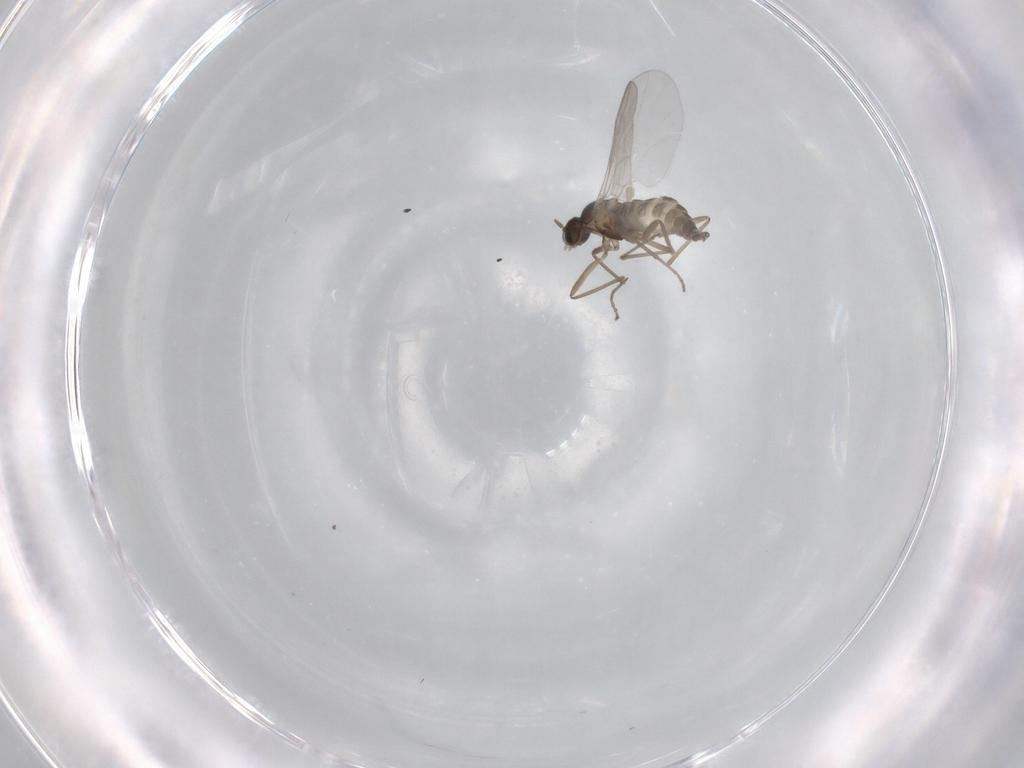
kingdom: Animalia
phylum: Arthropoda
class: Insecta
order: Diptera
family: Cecidomyiidae
